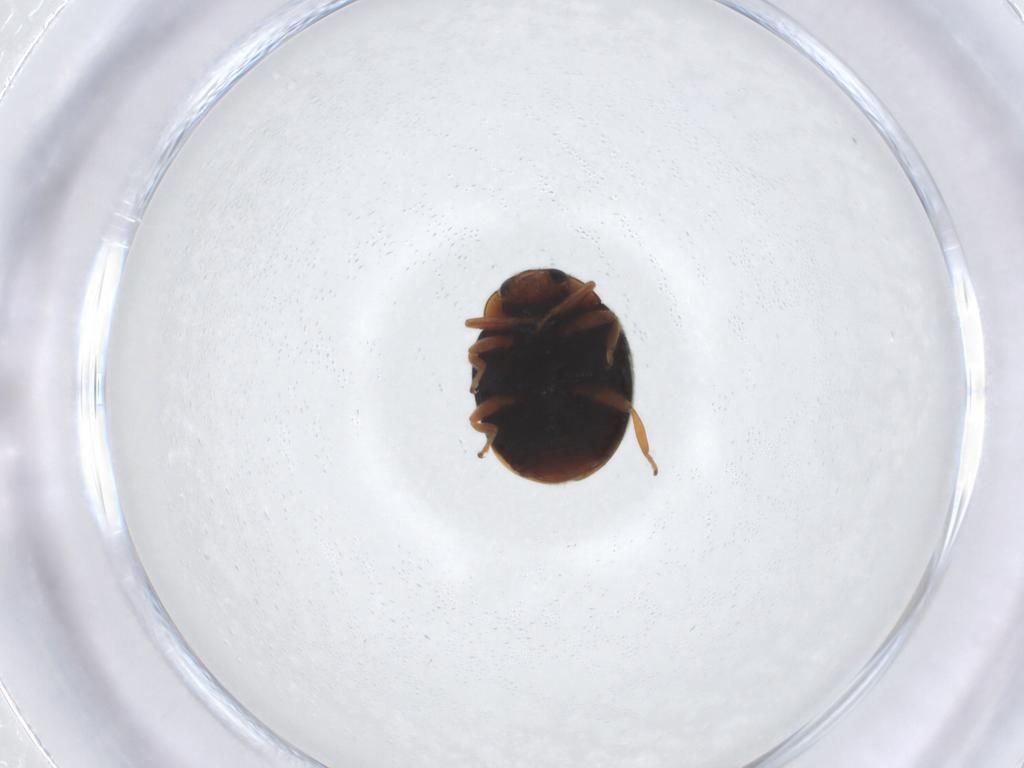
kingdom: Animalia
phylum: Arthropoda
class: Insecta
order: Coleoptera
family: Coccinellidae
